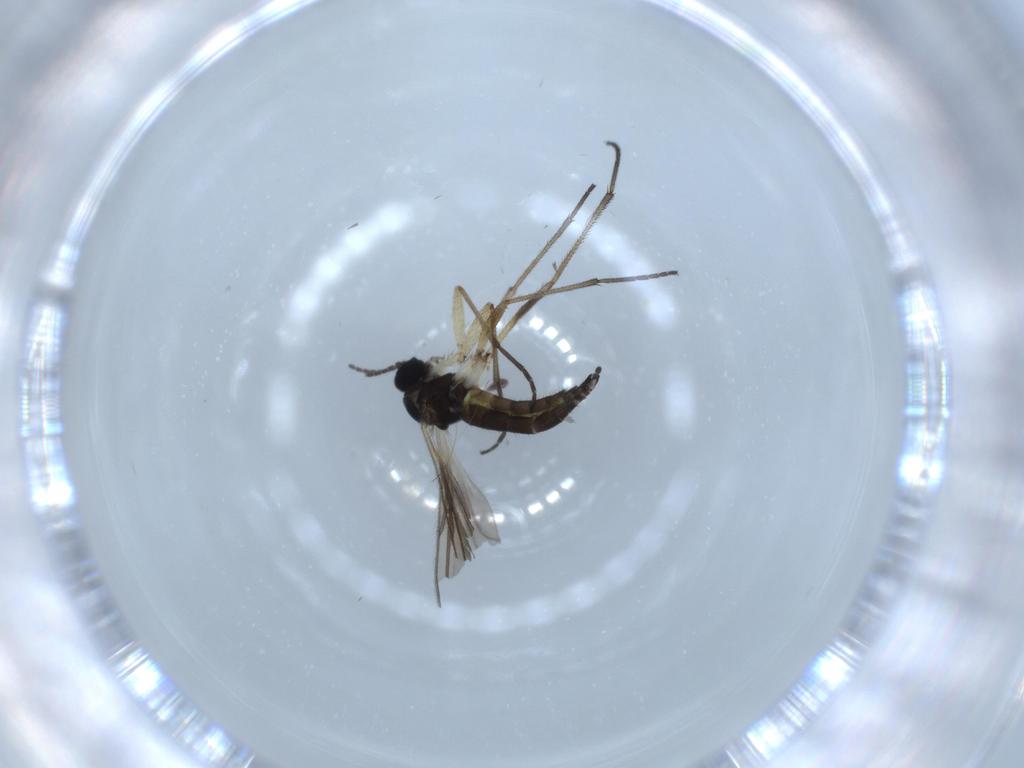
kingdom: Animalia
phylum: Arthropoda
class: Insecta
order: Diptera
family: Sciaridae
